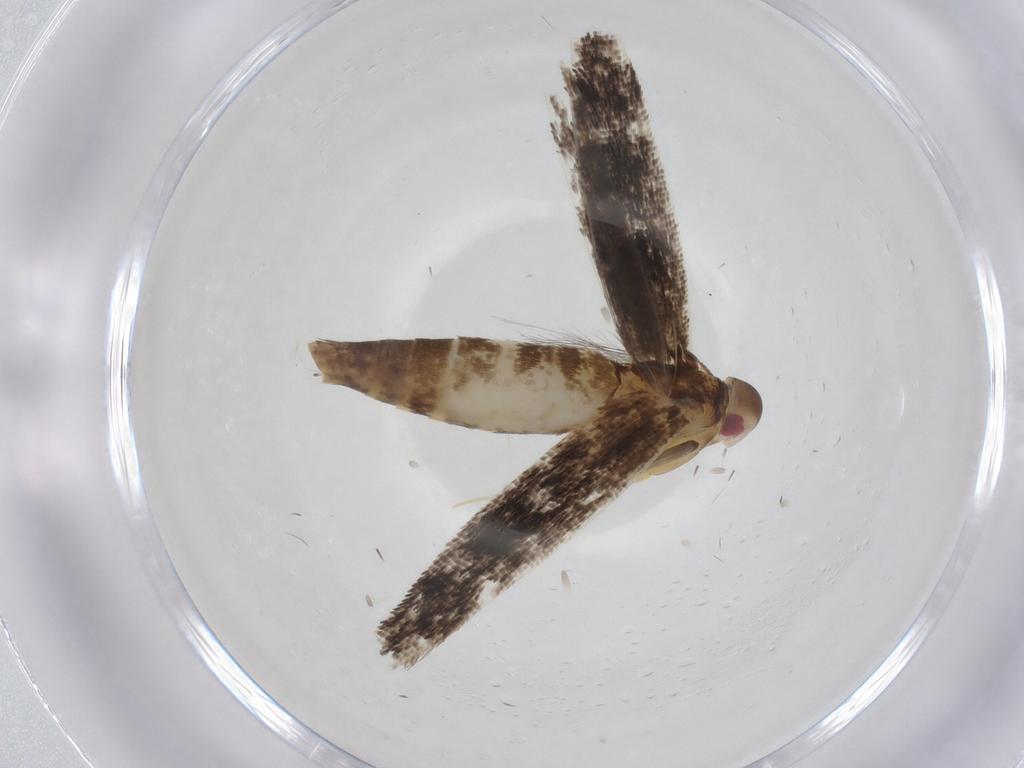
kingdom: Animalia
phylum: Arthropoda
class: Insecta
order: Lepidoptera
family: Cosmopterigidae
